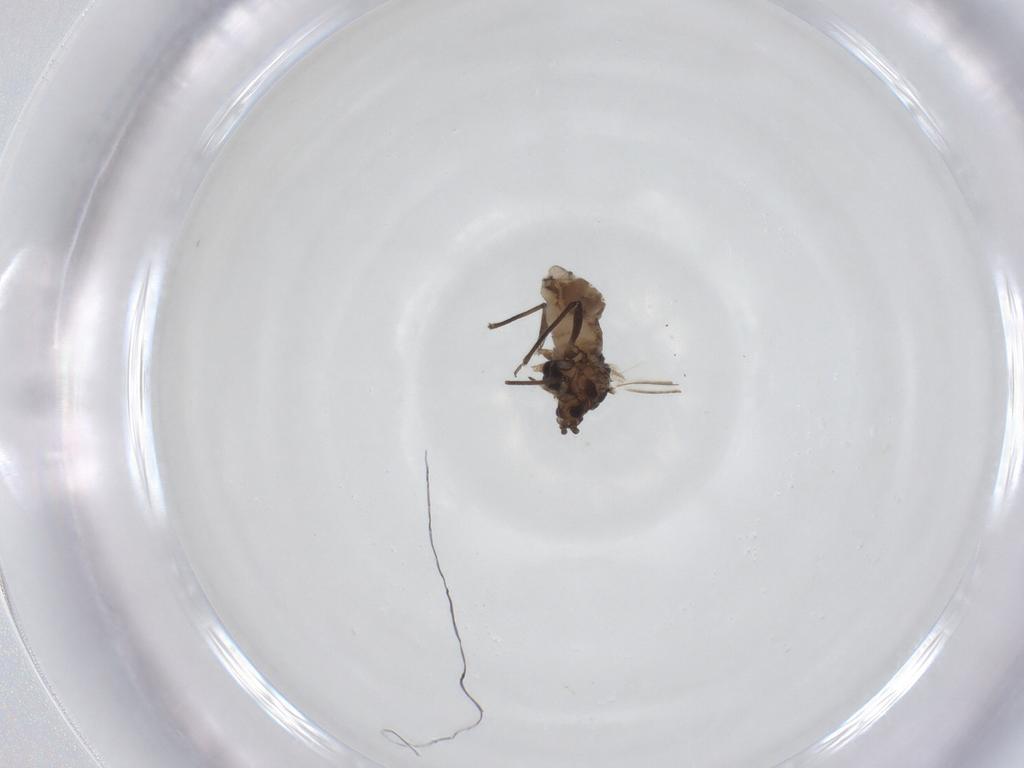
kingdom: Animalia
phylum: Arthropoda
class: Insecta
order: Hemiptera
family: Aphididae
